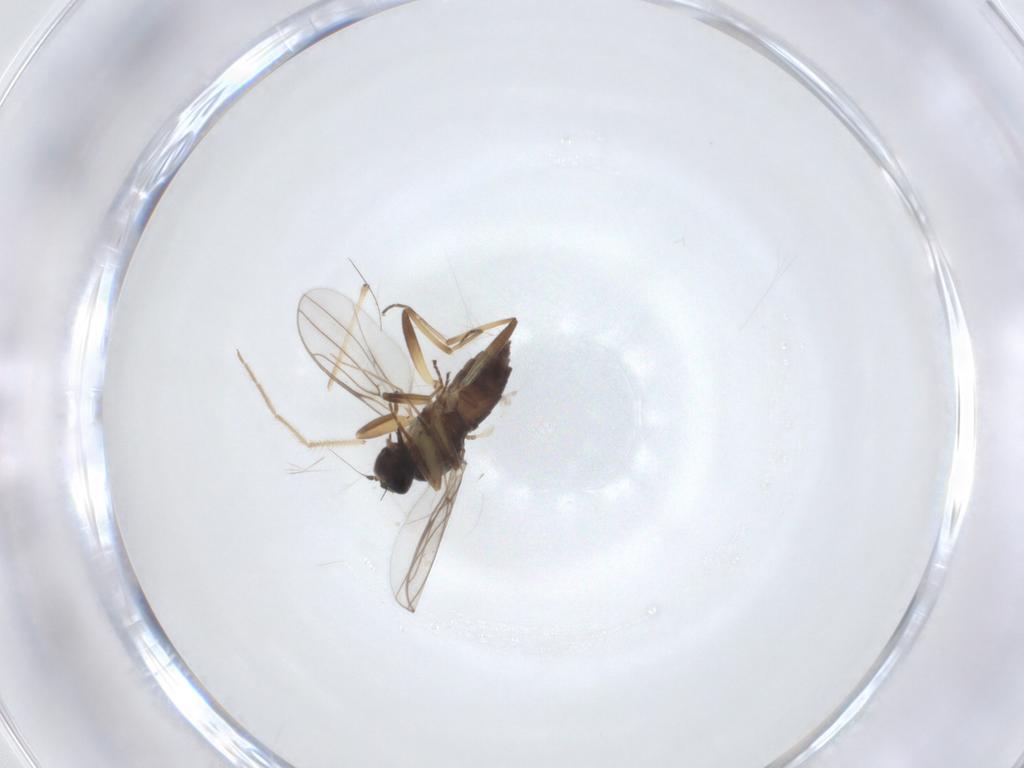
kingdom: Animalia
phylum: Arthropoda
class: Insecta
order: Diptera
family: Hybotidae
